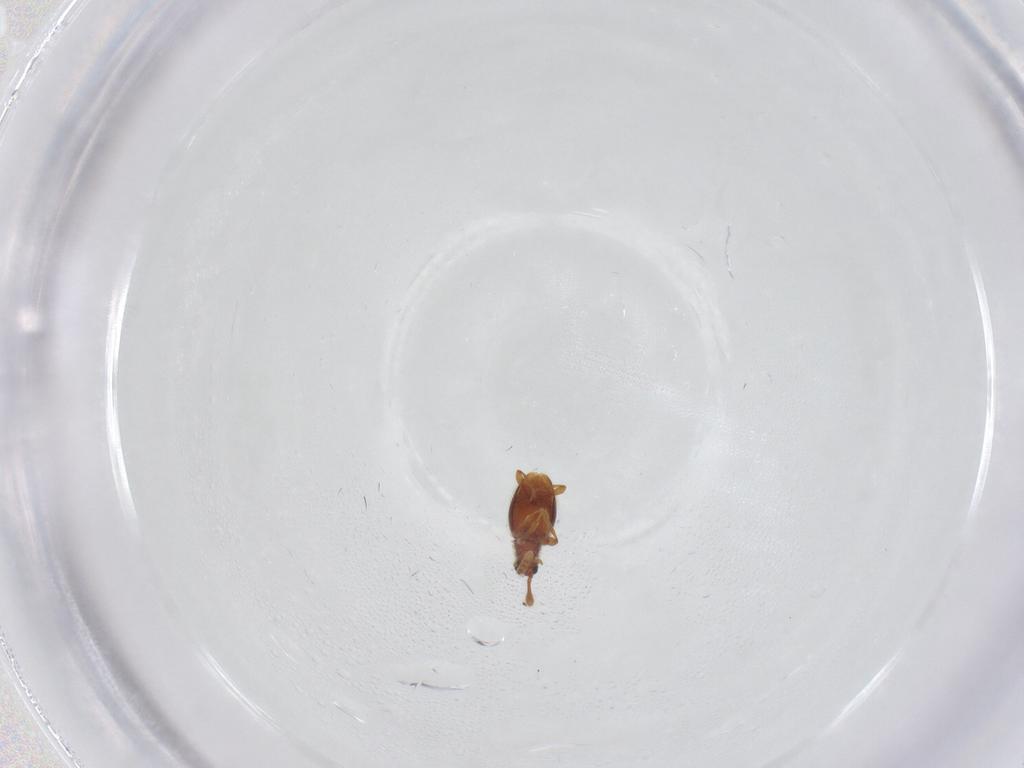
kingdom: Animalia
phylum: Arthropoda
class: Insecta
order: Coleoptera
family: Staphylinidae
